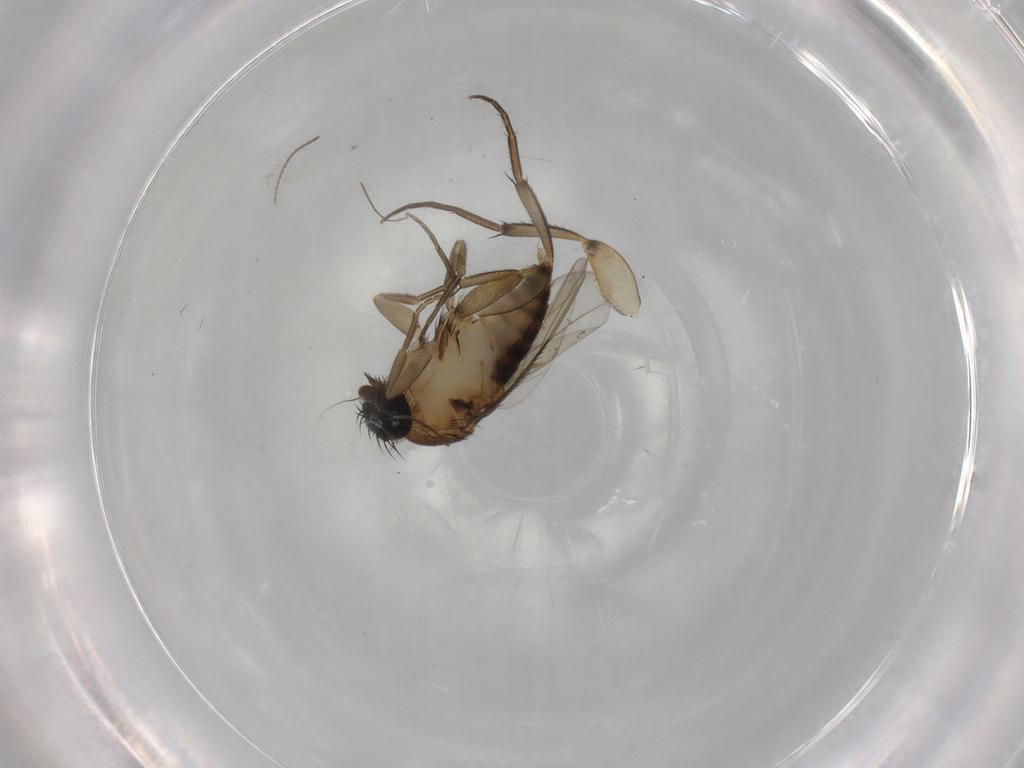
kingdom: Animalia
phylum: Arthropoda
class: Insecta
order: Diptera
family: Phoridae
